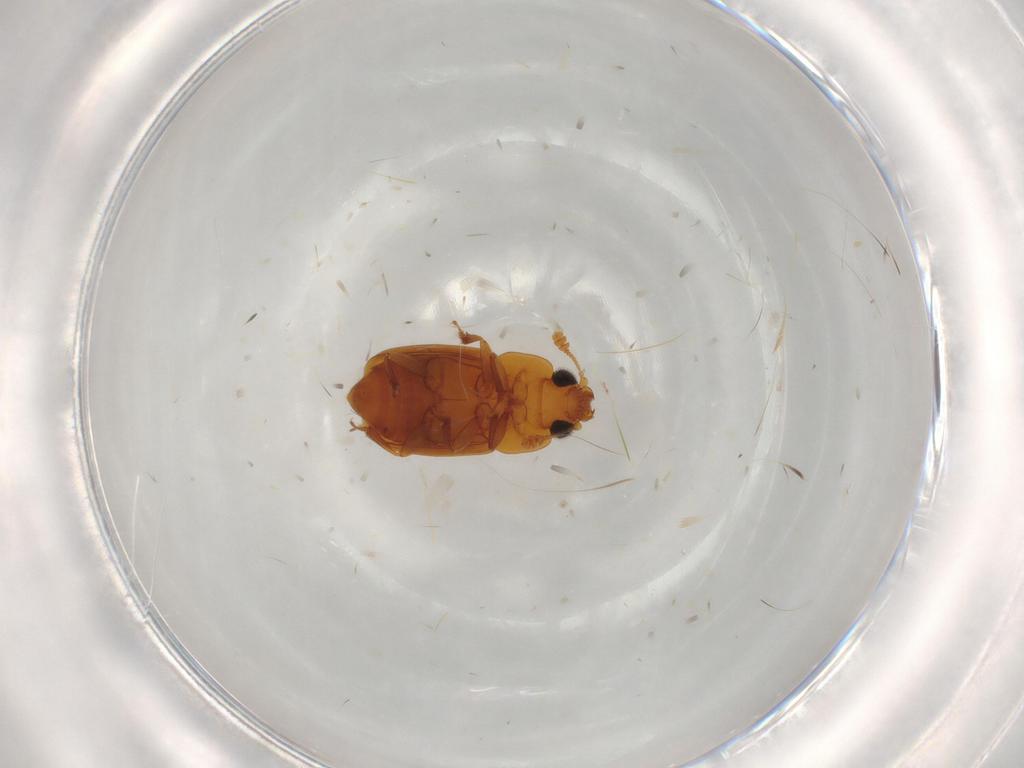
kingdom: Animalia
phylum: Arthropoda
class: Insecta
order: Coleoptera
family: Nitidulidae
